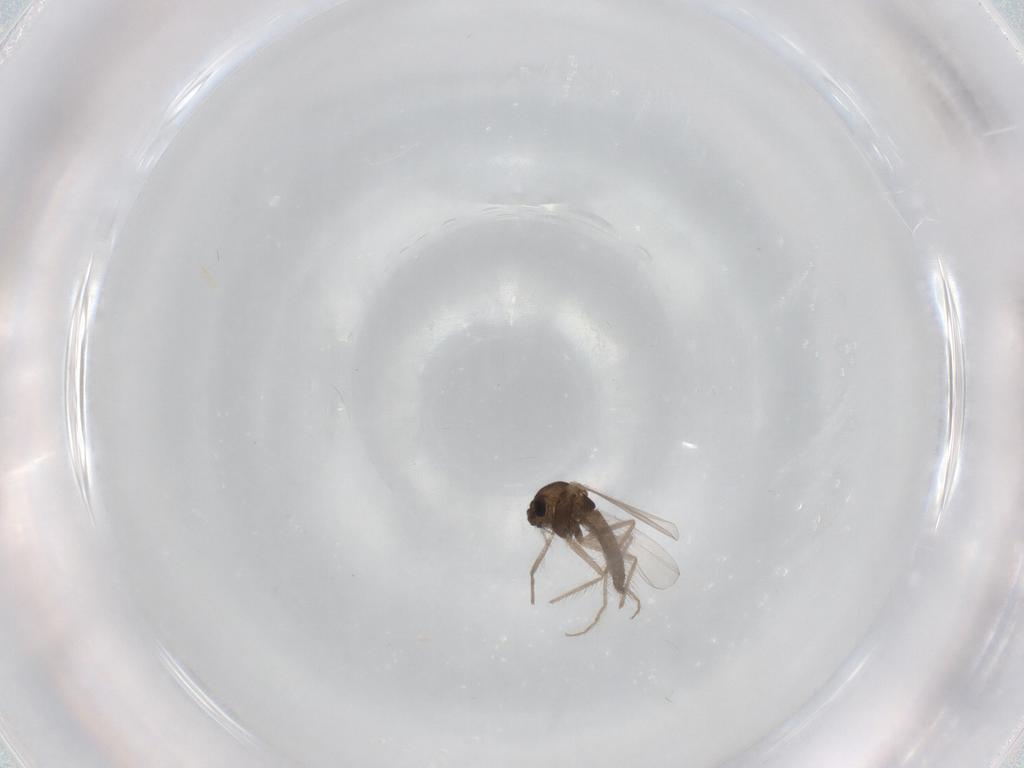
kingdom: Animalia
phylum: Arthropoda
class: Insecta
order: Diptera
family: Chironomidae
